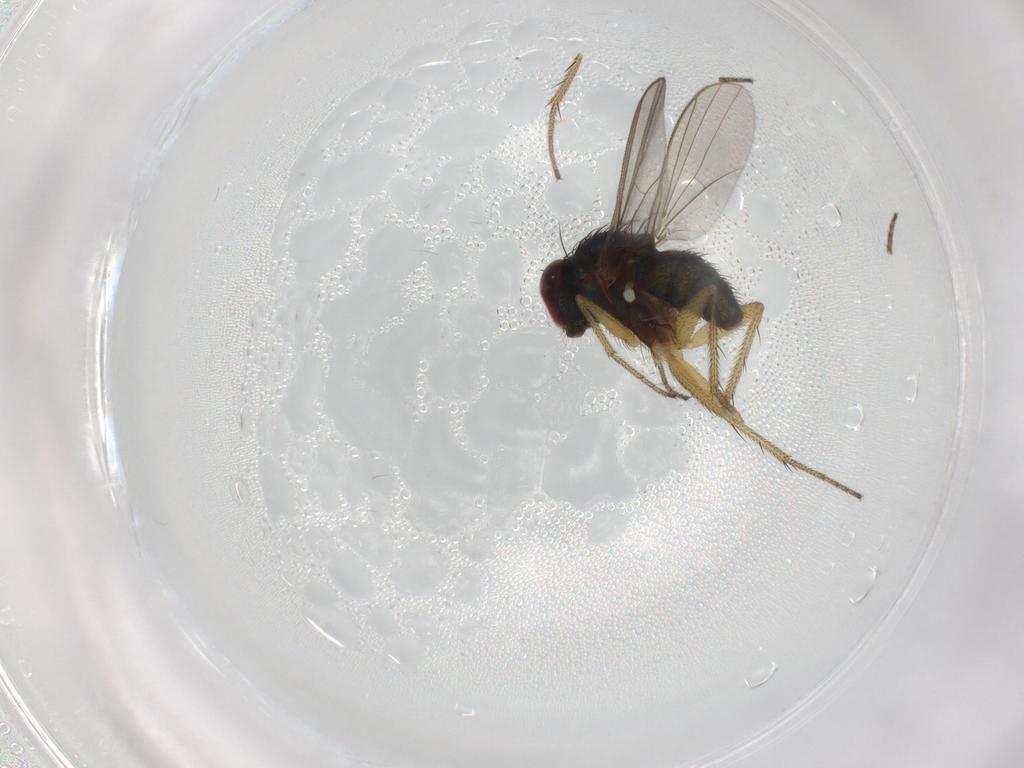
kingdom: Animalia
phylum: Arthropoda
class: Insecta
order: Diptera
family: Dolichopodidae
